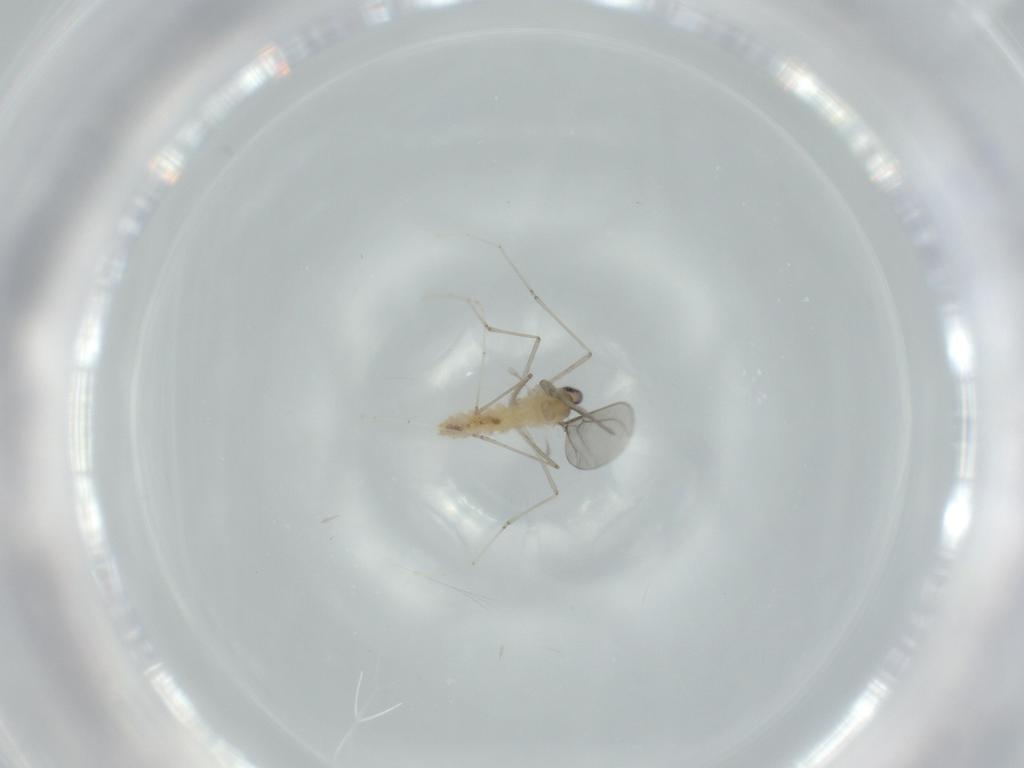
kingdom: Animalia
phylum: Arthropoda
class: Insecta
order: Diptera
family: Cecidomyiidae
